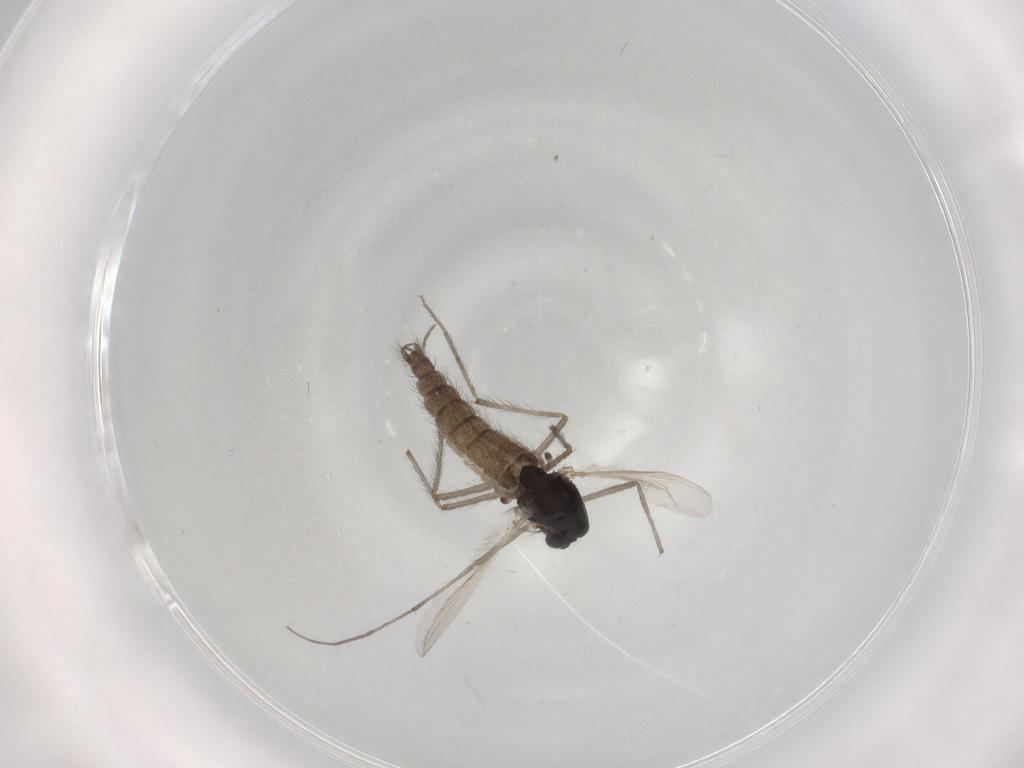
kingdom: Animalia
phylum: Arthropoda
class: Insecta
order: Diptera
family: Chironomidae
